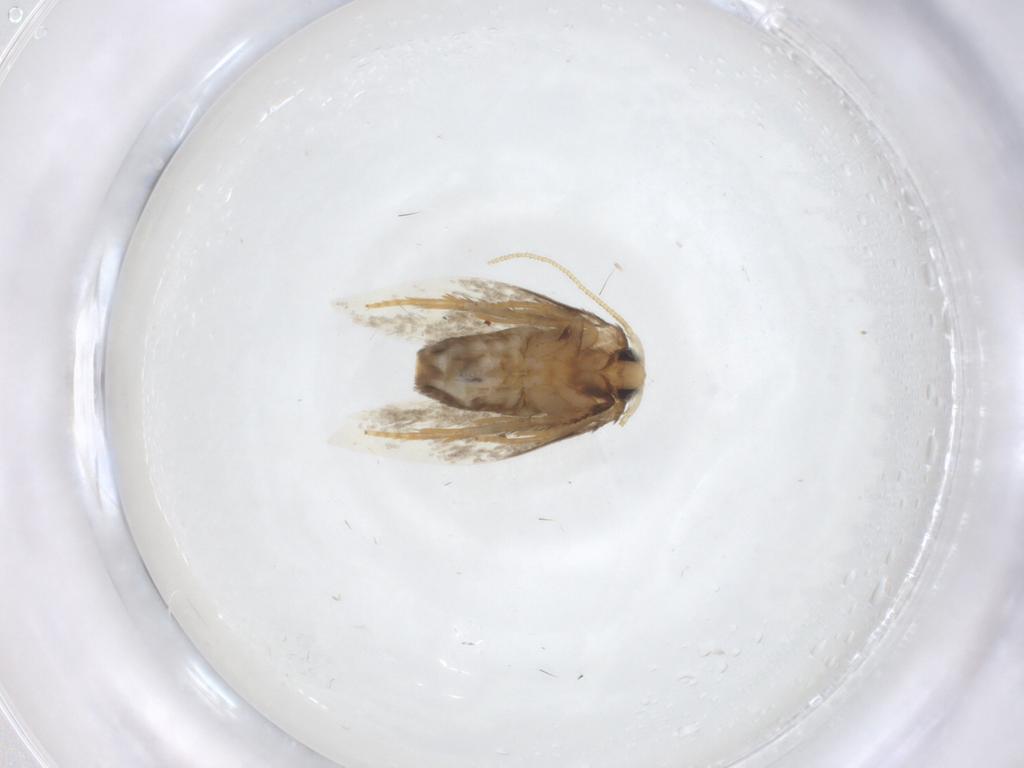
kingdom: Animalia
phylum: Arthropoda
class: Insecta
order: Lepidoptera
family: Nepticulidae
